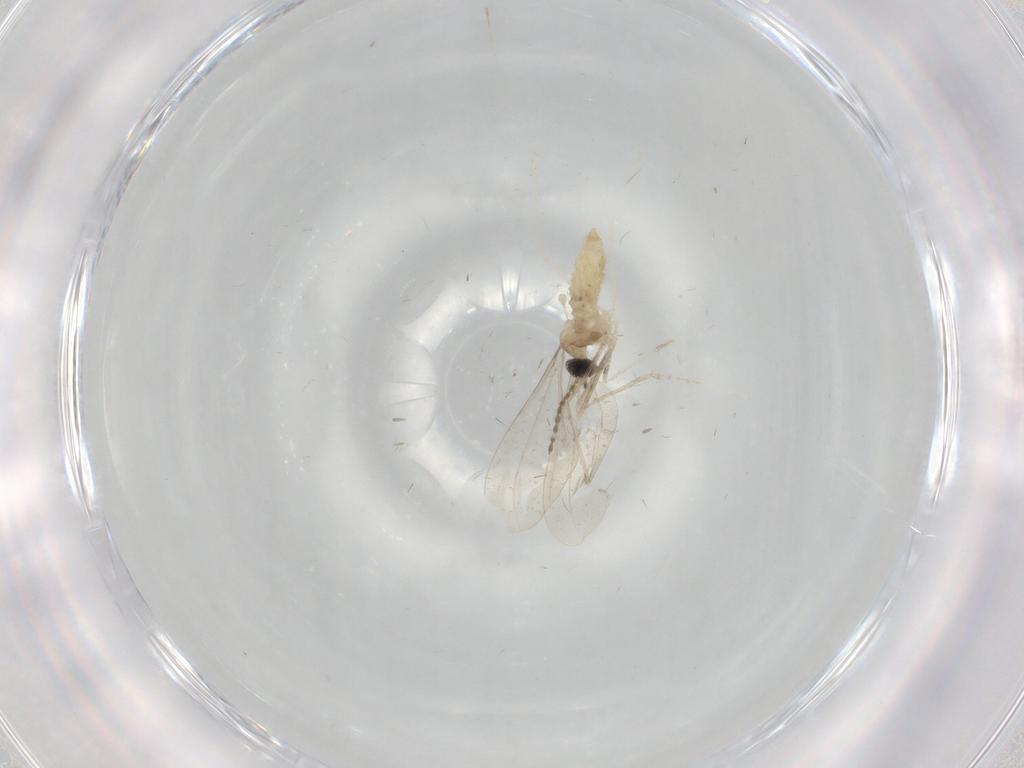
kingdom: Animalia
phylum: Arthropoda
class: Insecta
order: Diptera
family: Cecidomyiidae
